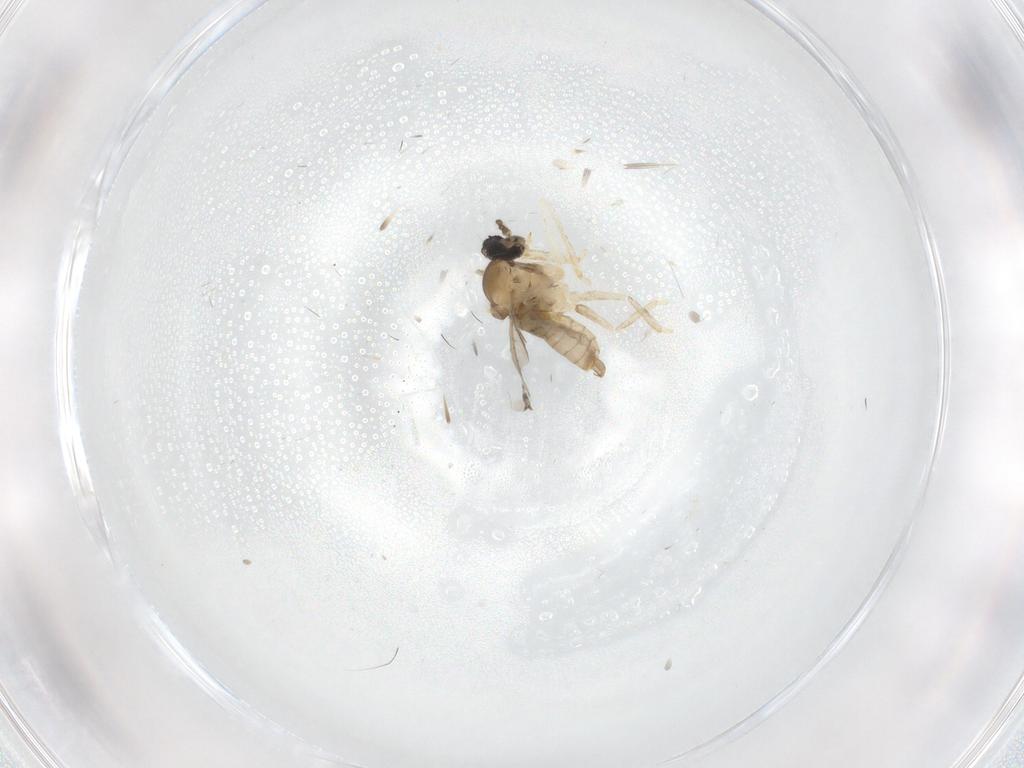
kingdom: Animalia
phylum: Arthropoda
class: Insecta
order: Diptera
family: Ceratopogonidae
